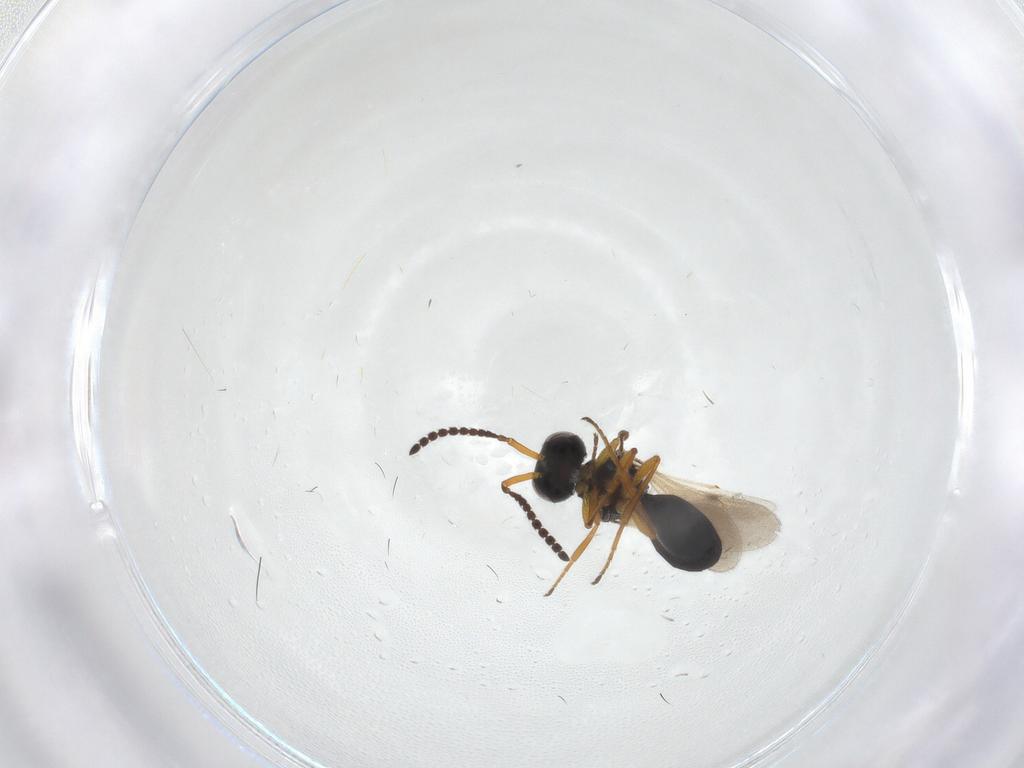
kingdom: Animalia
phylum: Arthropoda
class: Insecta
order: Hymenoptera
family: Scelionidae
